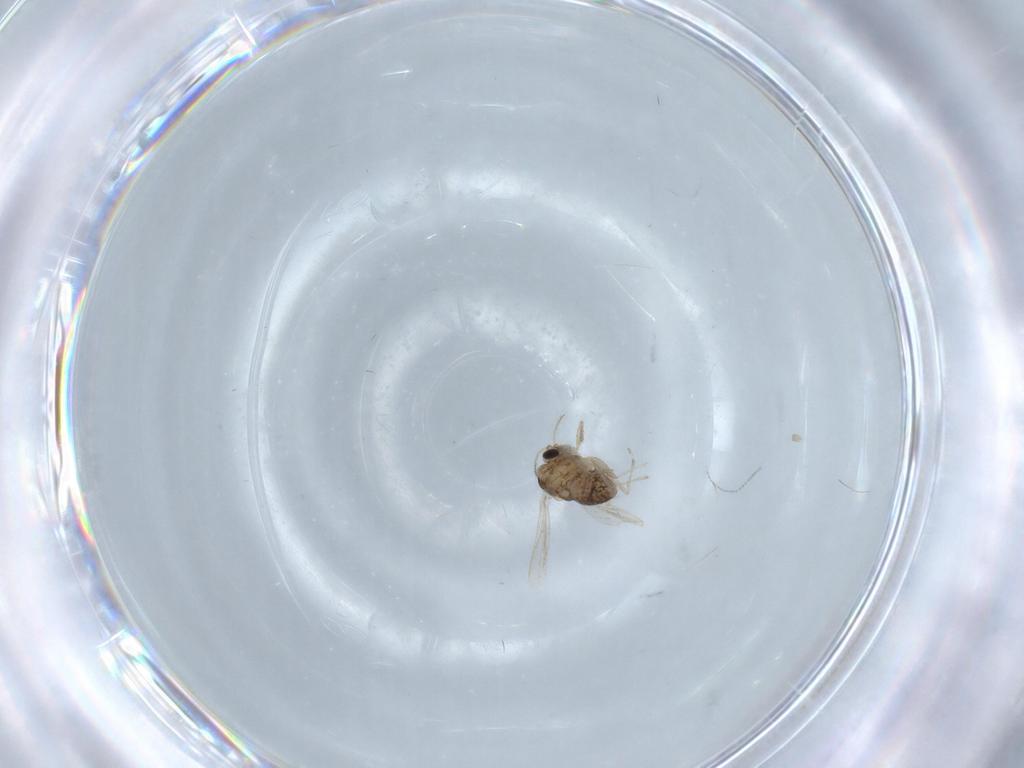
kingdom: Animalia
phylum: Arthropoda
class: Insecta
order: Diptera
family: Chironomidae
